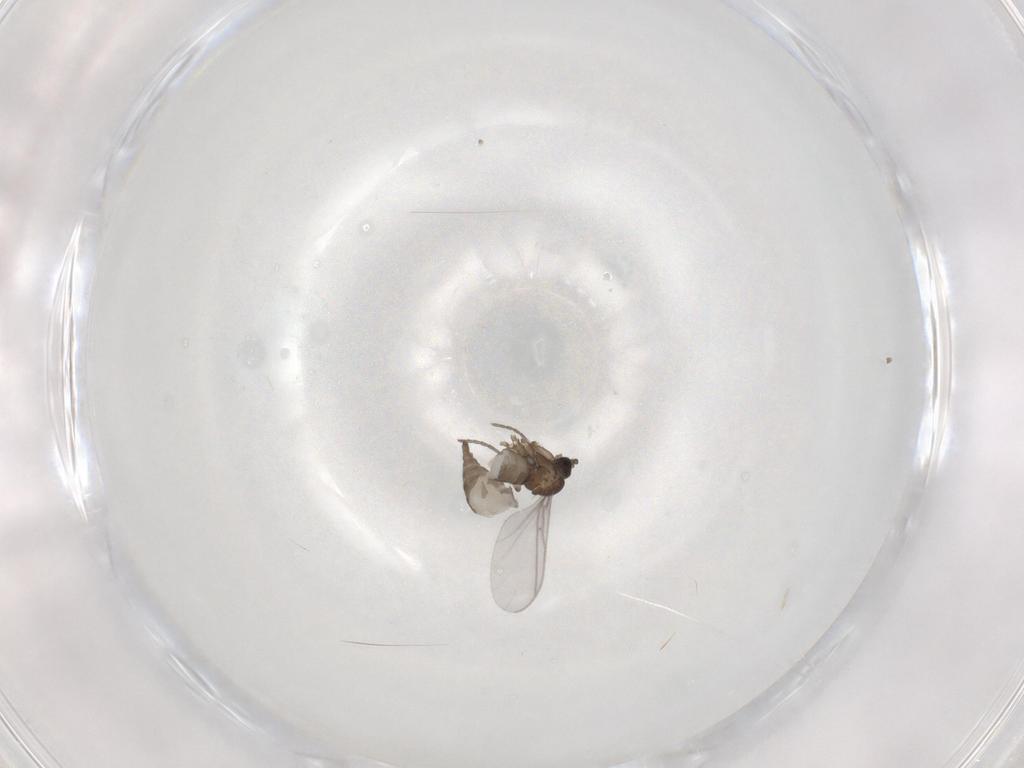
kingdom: Animalia
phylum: Arthropoda
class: Insecta
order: Diptera
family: Sciaridae
